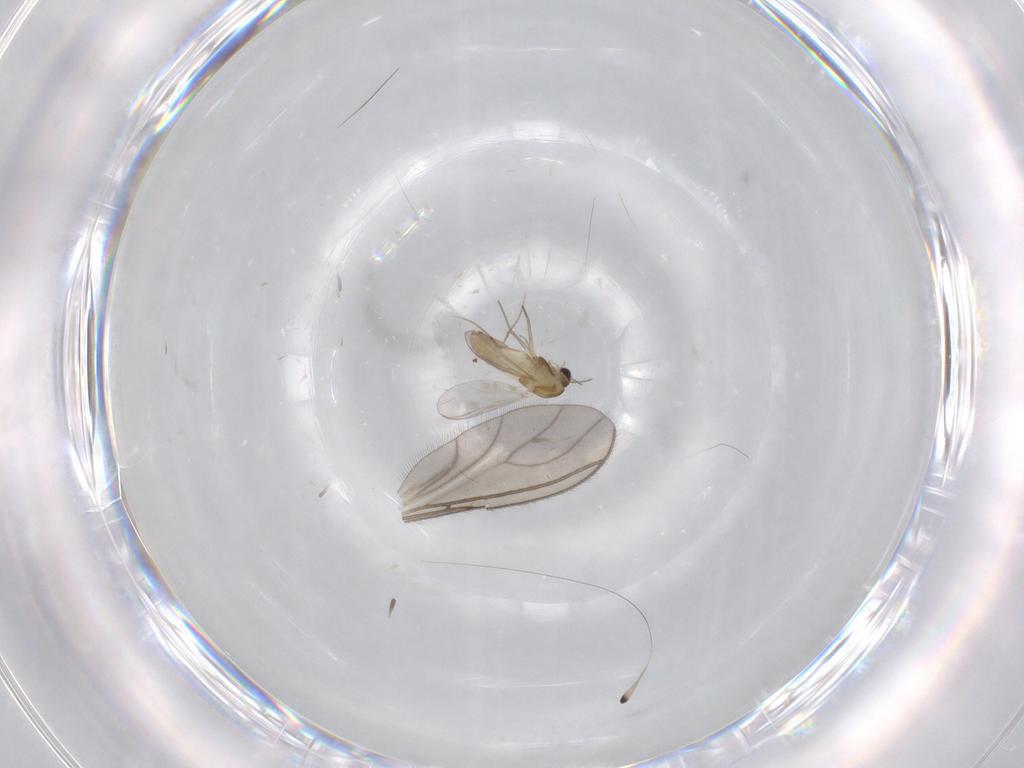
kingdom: Animalia
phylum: Arthropoda
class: Insecta
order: Diptera
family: Chironomidae
